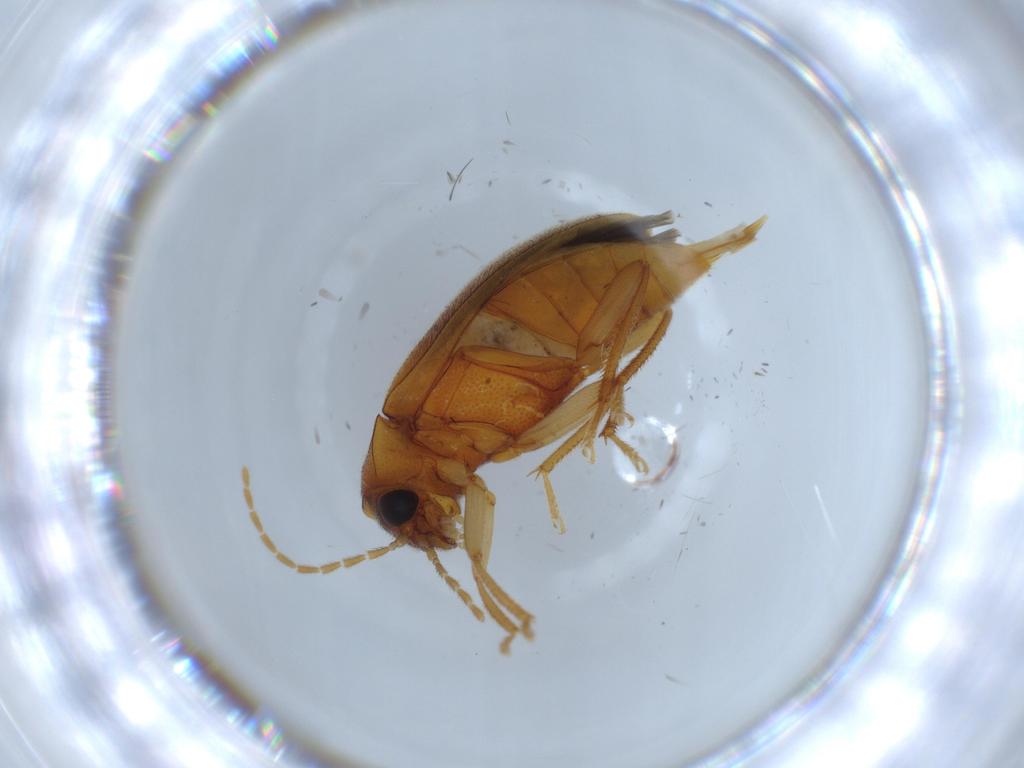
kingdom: Animalia
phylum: Arthropoda
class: Insecta
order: Coleoptera
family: Ptilodactylidae
